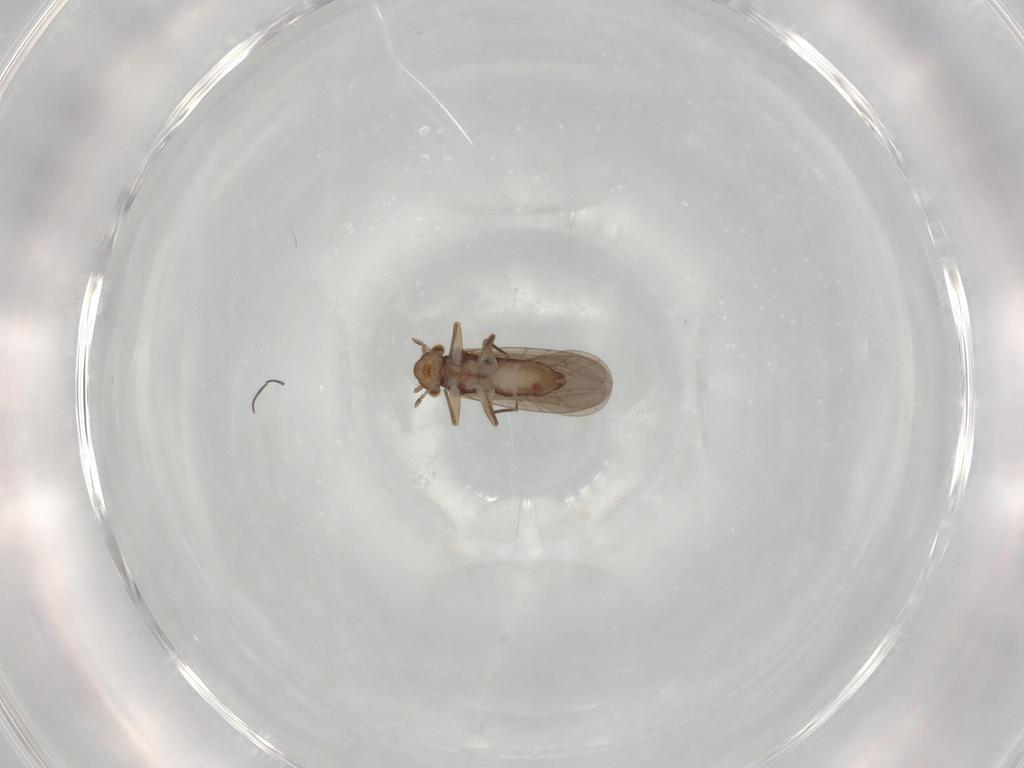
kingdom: Animalia
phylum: Arthropoda
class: Insecta
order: Psocodea
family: Lepidopsocidae
